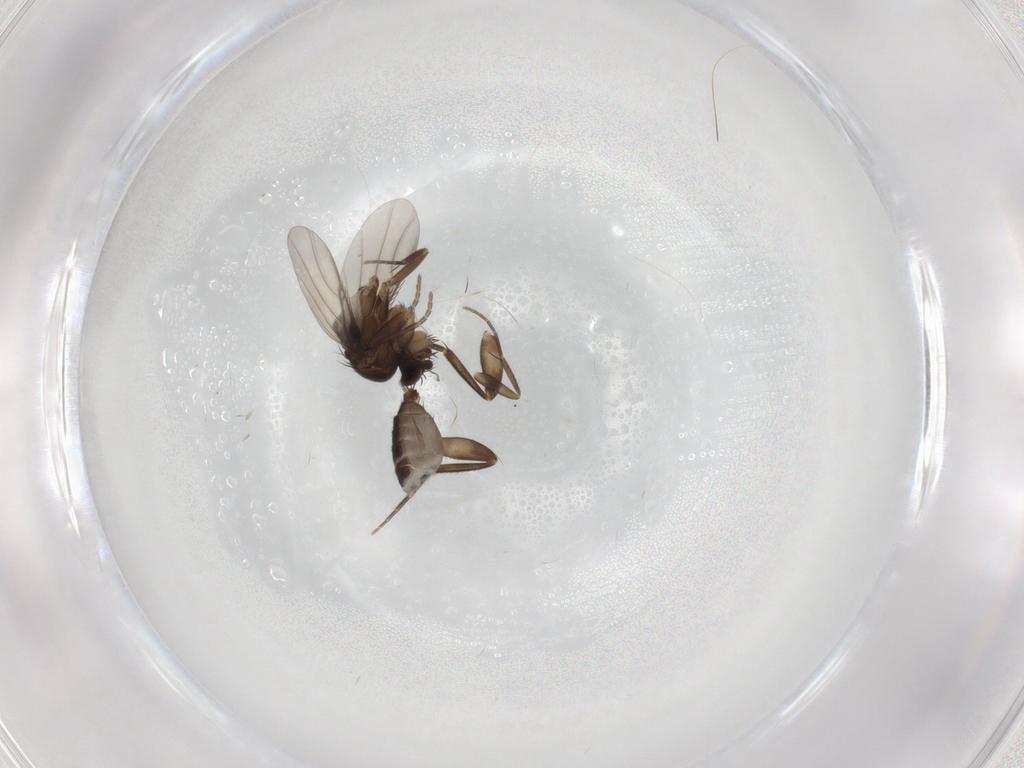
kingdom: Animalia
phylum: Arthropoda
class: Insecta
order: Diptera
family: Phoridae
